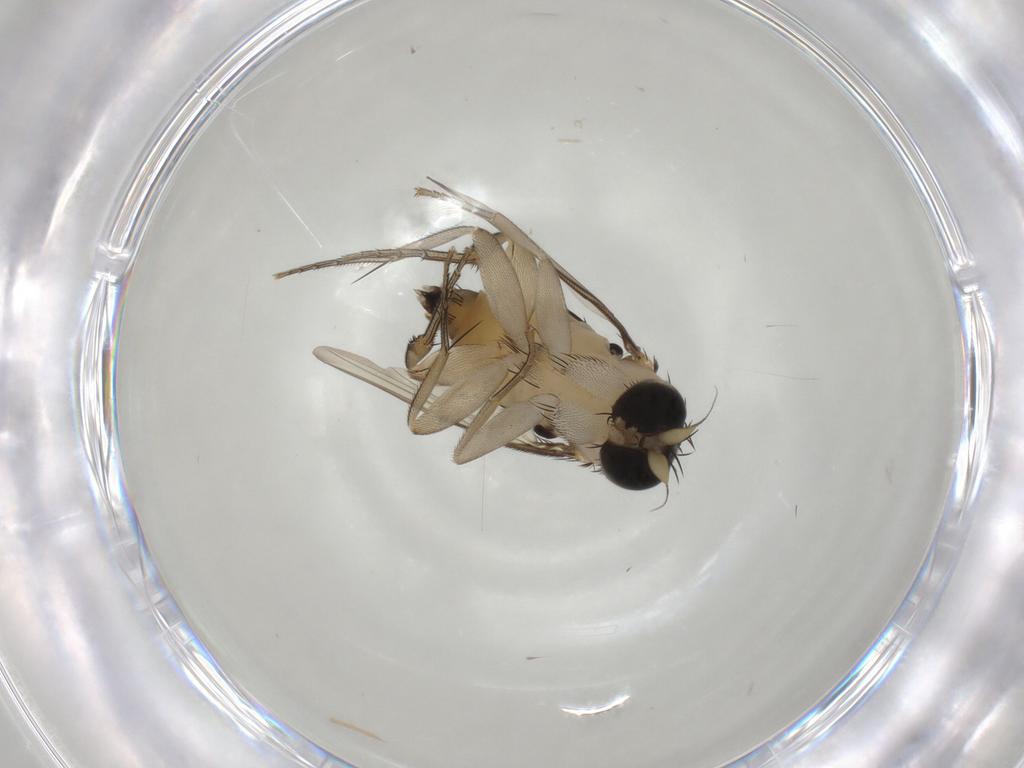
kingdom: Animalia
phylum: Arthropoda
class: Insecta
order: Diptera
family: Phoridae
